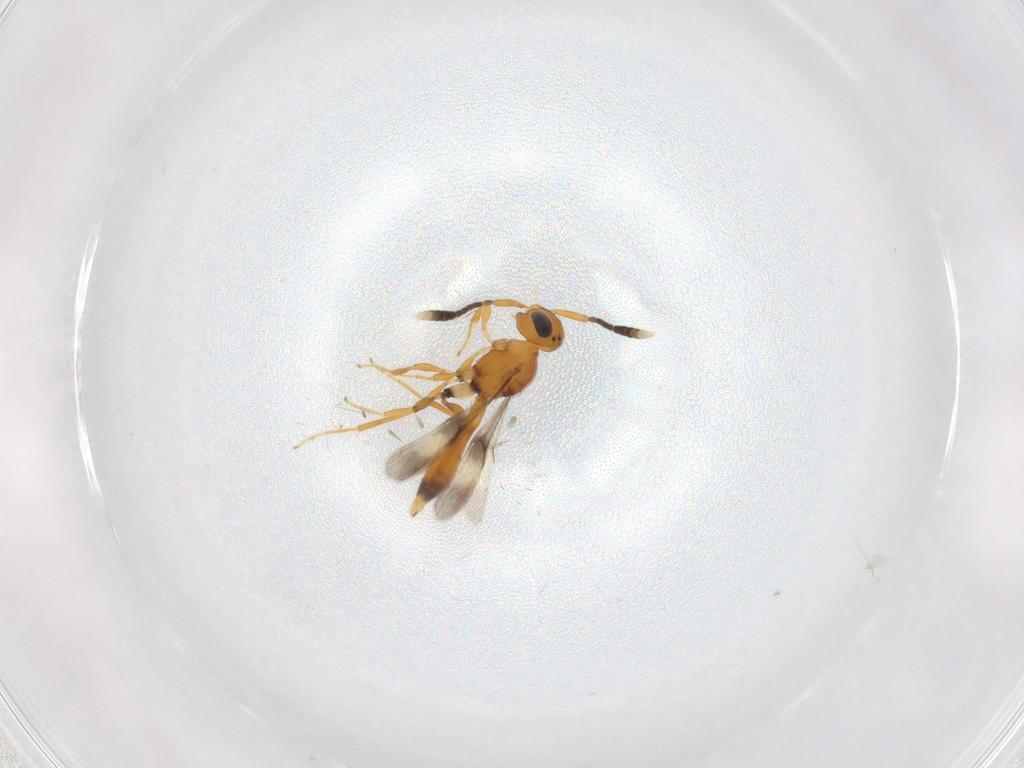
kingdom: Animalia
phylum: Arthropoda
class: Insecta
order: Hymenoptera
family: Scelionidae
